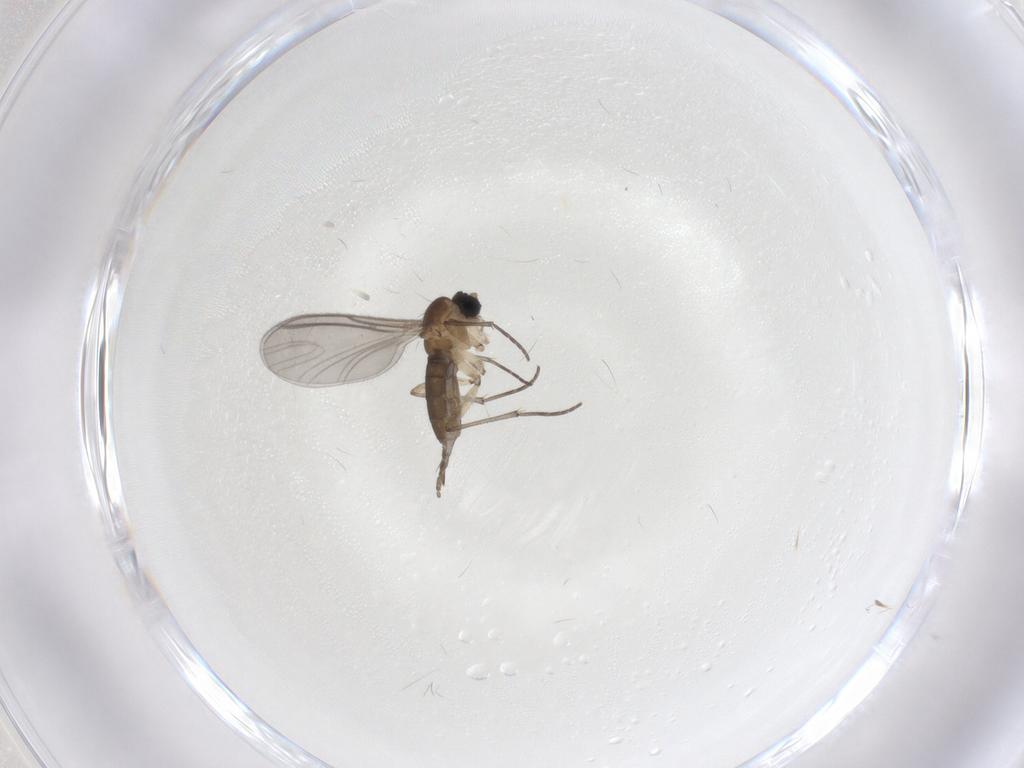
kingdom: Animalia
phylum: Arthropoda
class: Insecta
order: Diptera
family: Sciaridae
